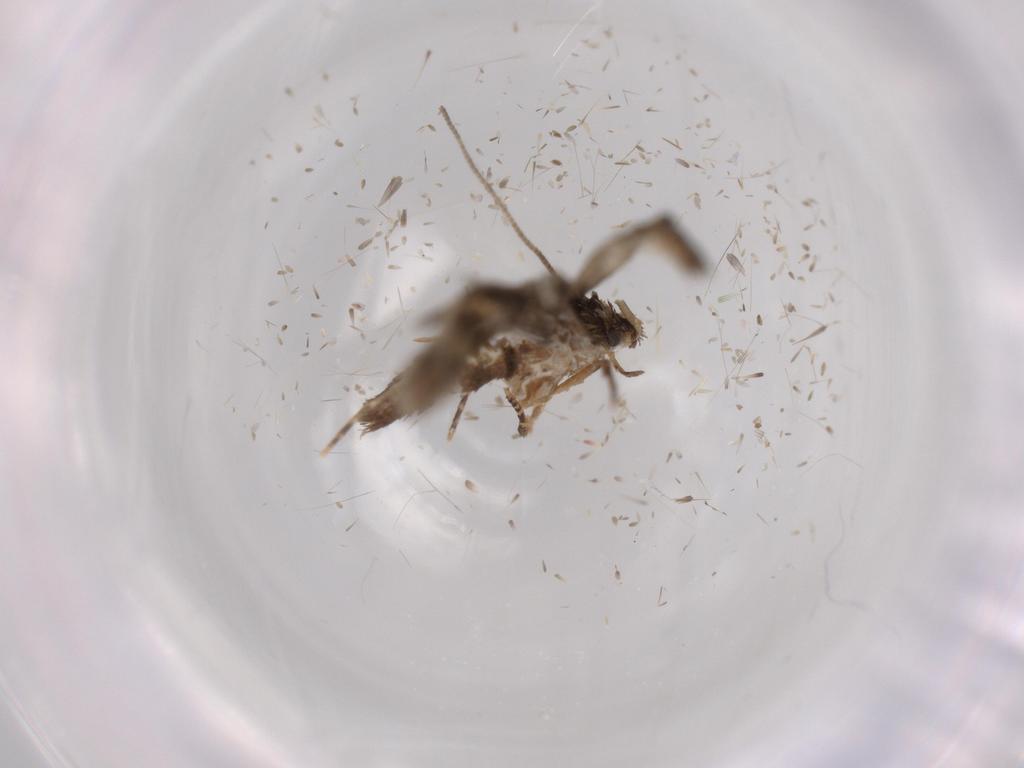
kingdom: Animalia
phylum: Arthropoda
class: Insecta
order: Lepidoptera
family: Tineidae
